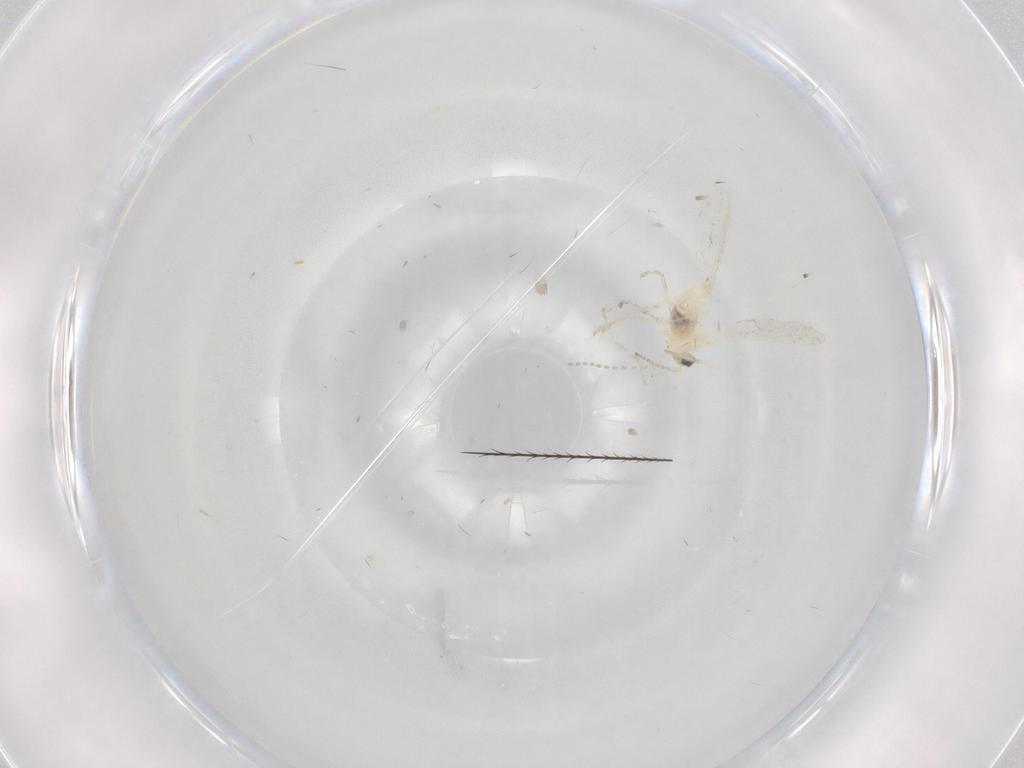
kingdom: Animalia
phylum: Arthropoda
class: Insecta
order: Diptera
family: Cecidomyiidae
